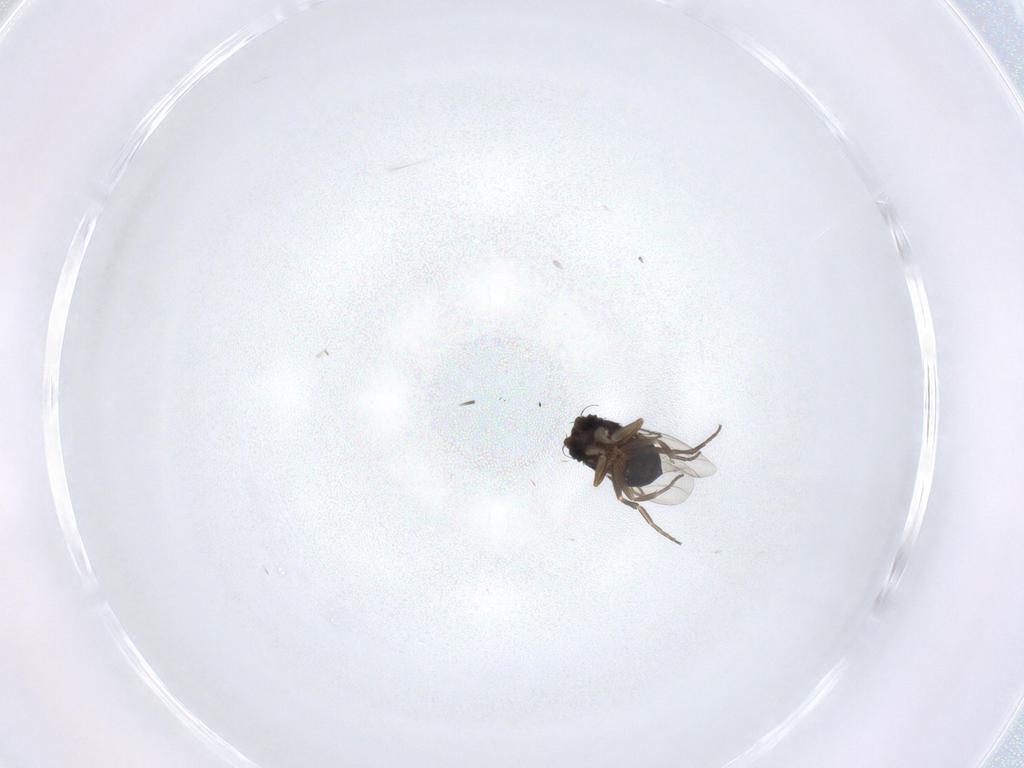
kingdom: Animalia
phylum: Arthropoda
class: Insecta
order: Diptera
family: Phoridae
